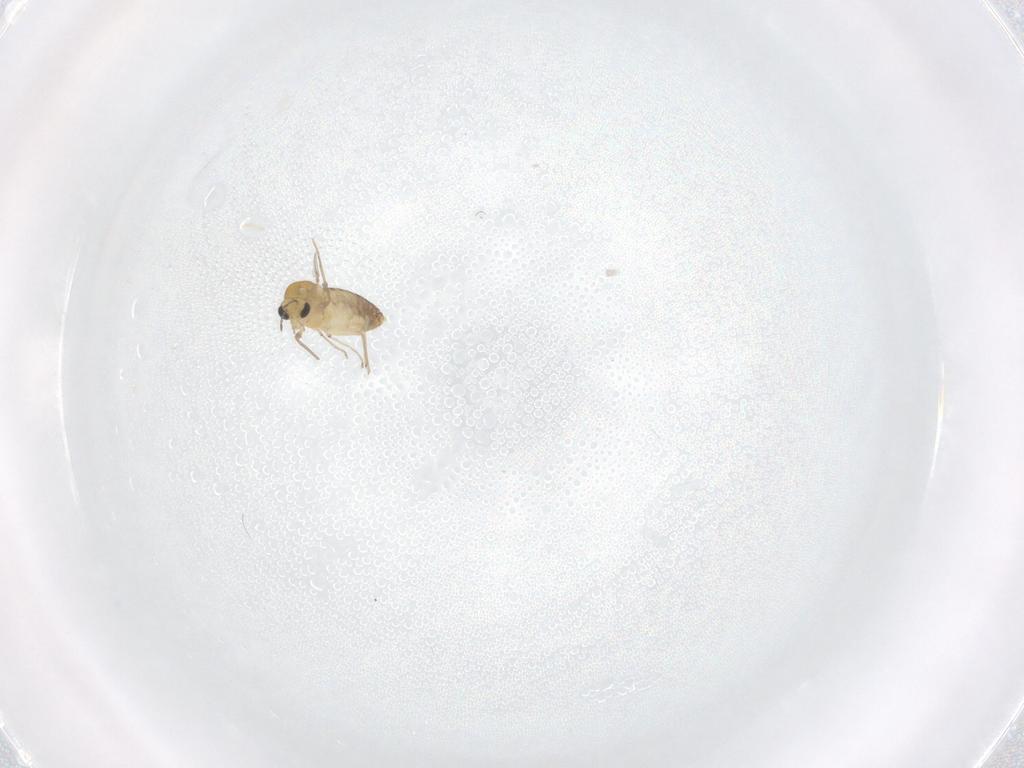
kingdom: Animalia
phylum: Arthropoda
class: Insecta
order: Diptera
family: Chironomidae
